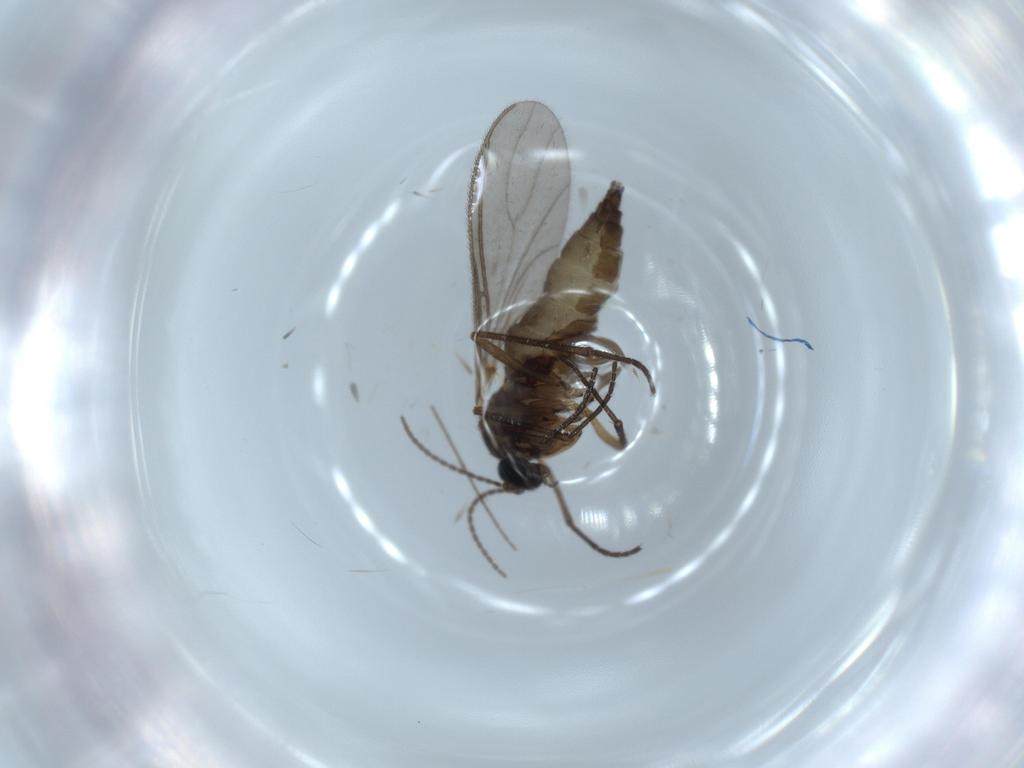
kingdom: Animalia
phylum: Arthropoda
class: Insecta
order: Diptera
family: Sciaridae
